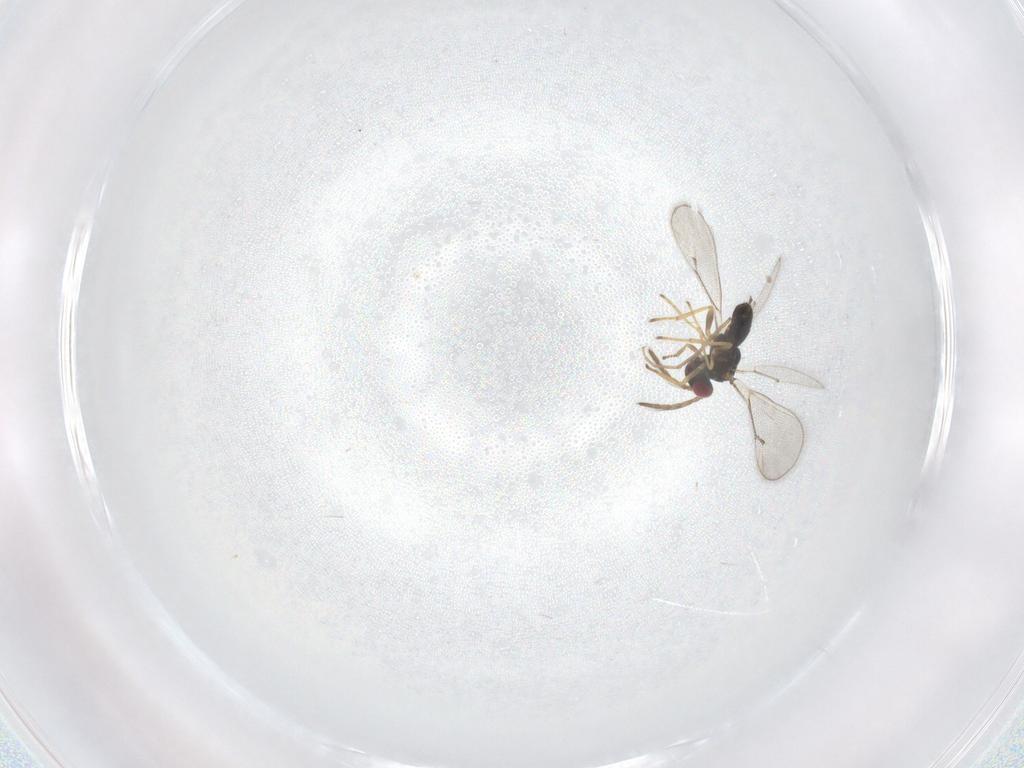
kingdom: Animalia
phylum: Arthropoda
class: Insecta
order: Hymenoptera
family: Eulophidae
